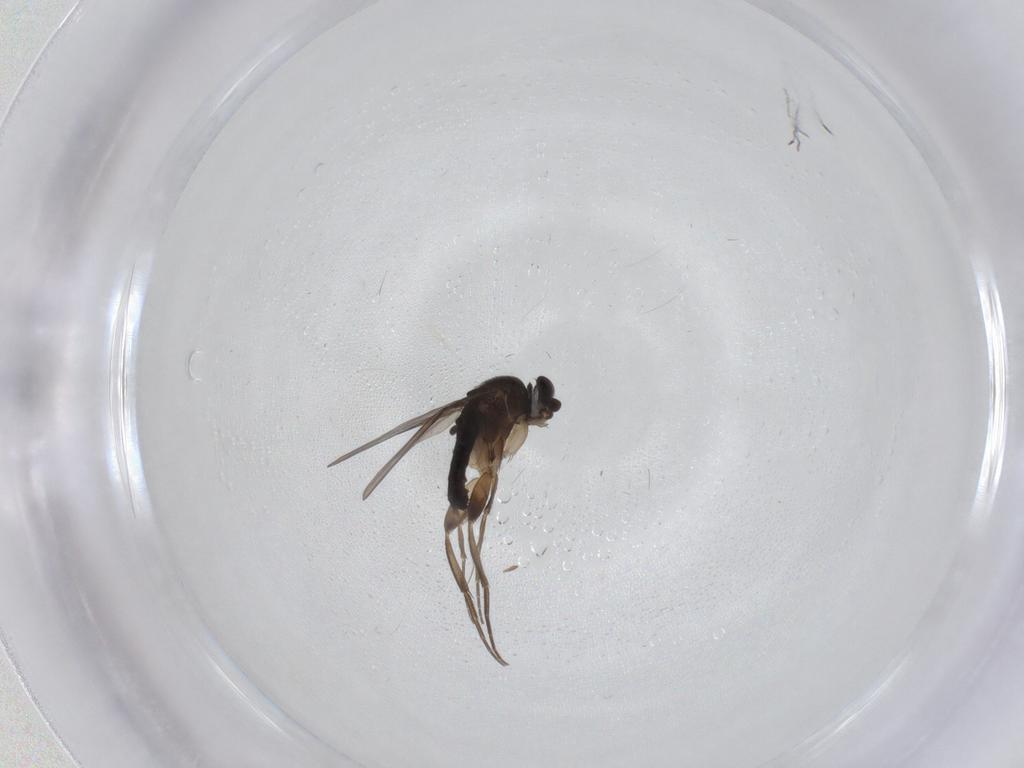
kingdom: Animalia
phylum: Arthropoda
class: Insecta
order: Diptera
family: Phoridae
